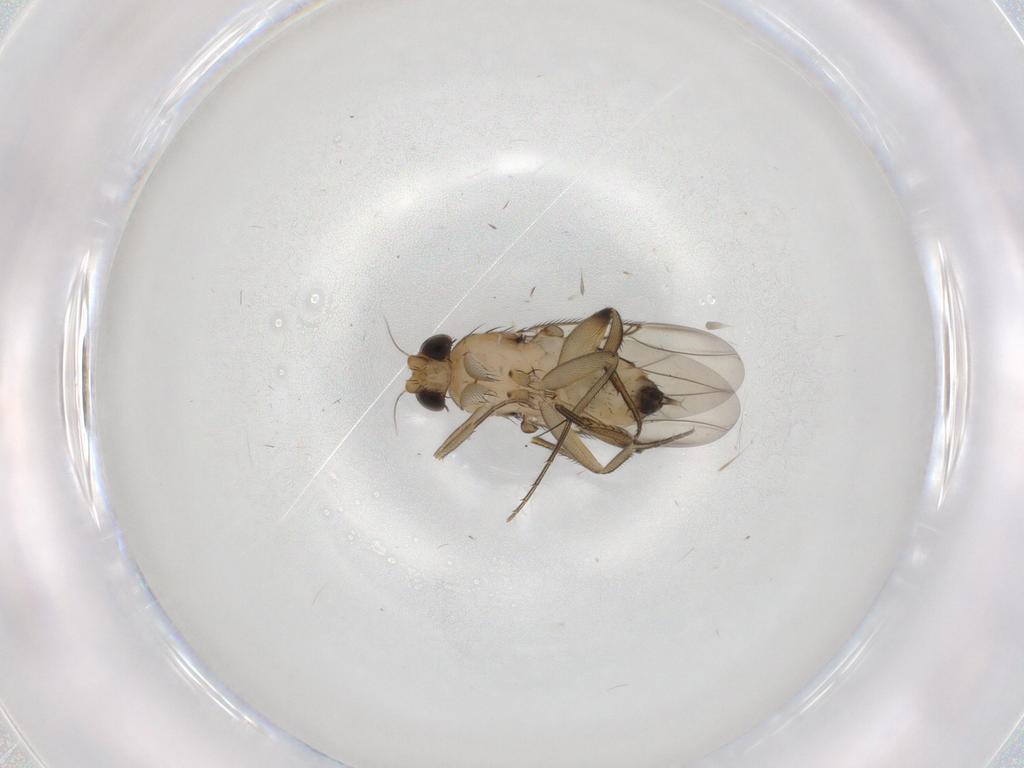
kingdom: Animalia
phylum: Arthropoda
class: Insecta
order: Diptera
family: Phoridae
